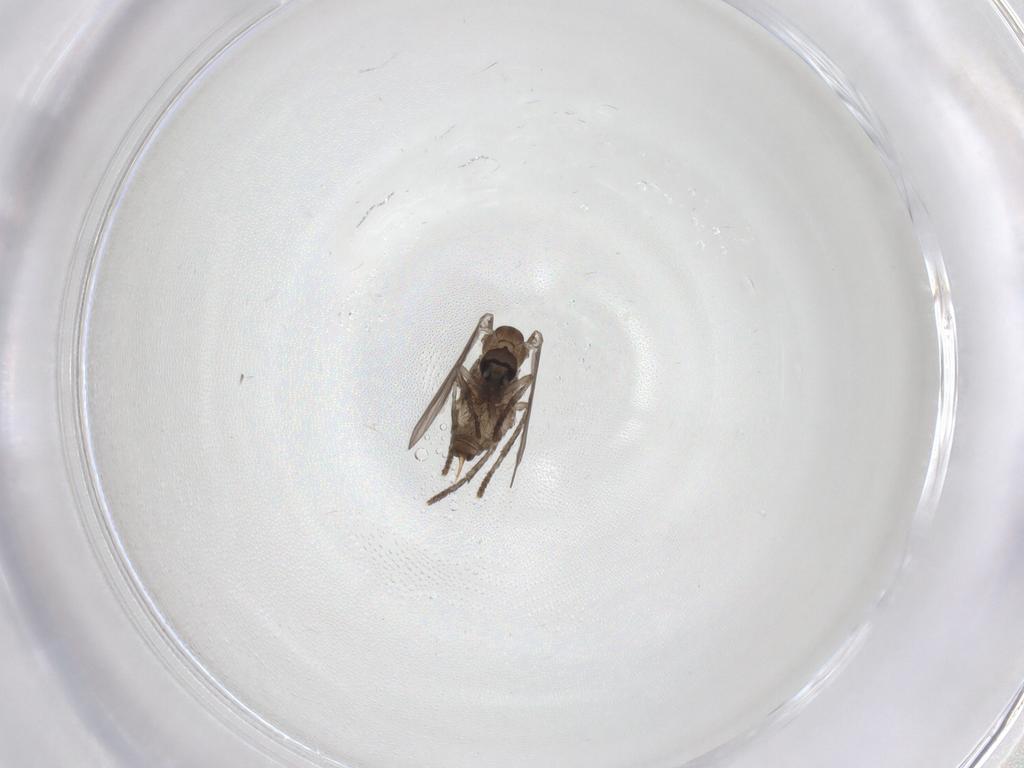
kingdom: Animalia
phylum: Arthropoda
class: Insecta
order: Diptera
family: Psychodidae
